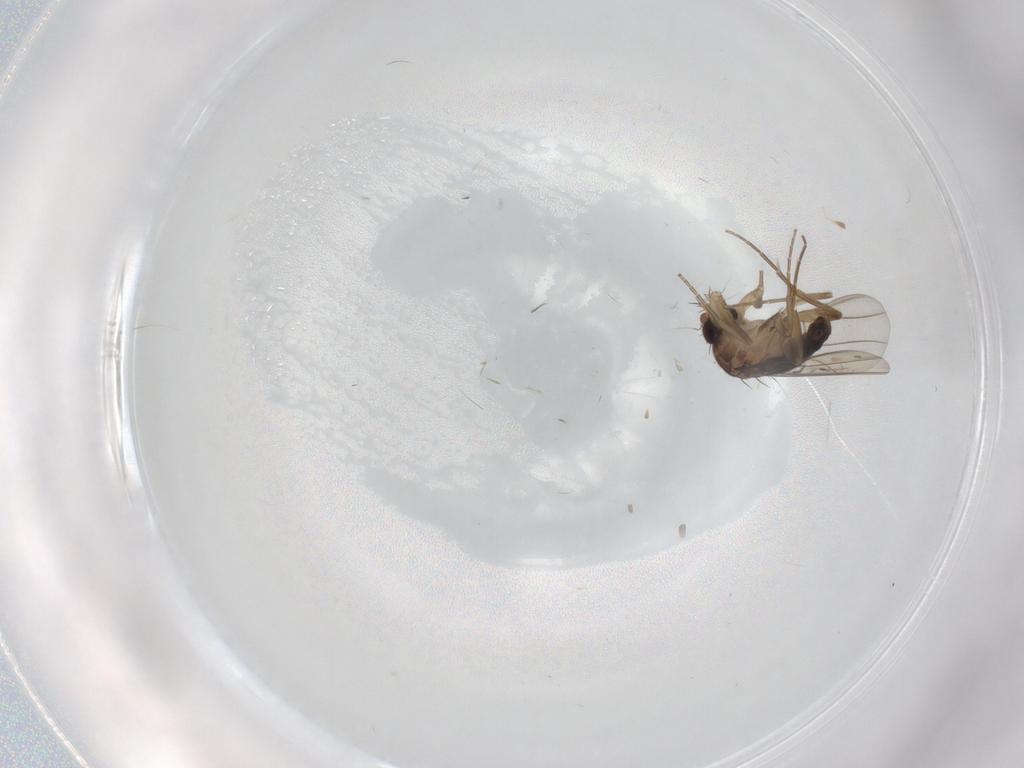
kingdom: Animalia
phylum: Arthropoda
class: Insecta
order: Diptera
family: Phoridae
